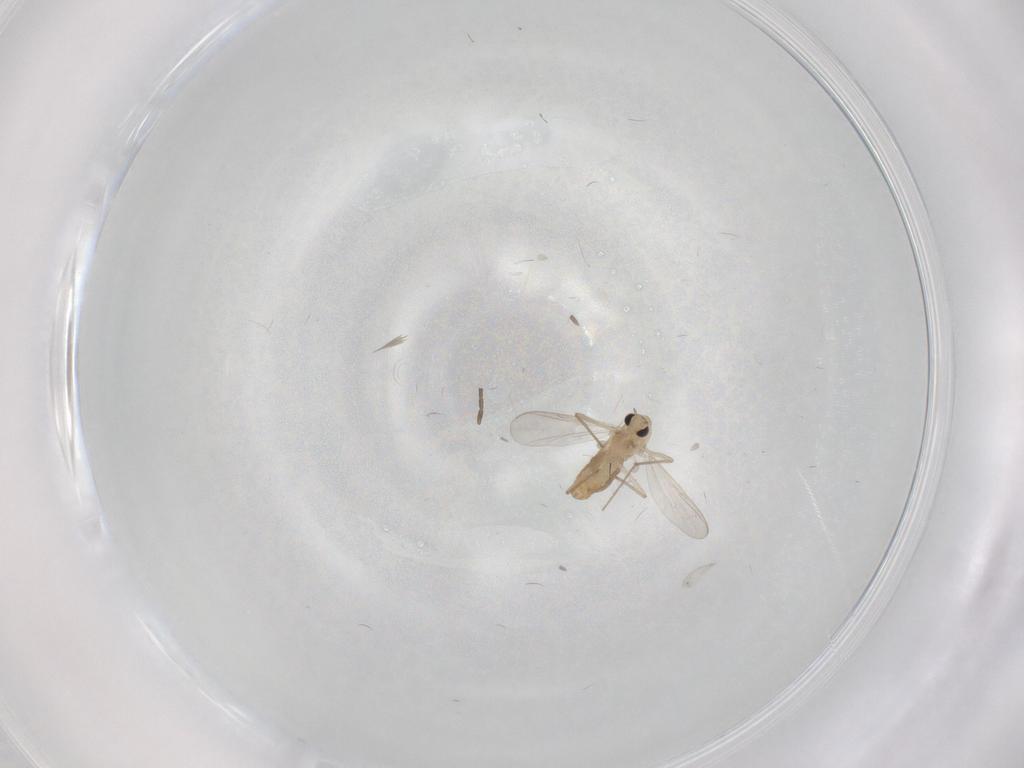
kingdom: Animalia
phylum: Arthropoda
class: Insecta
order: Diptera
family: Chironomidae
